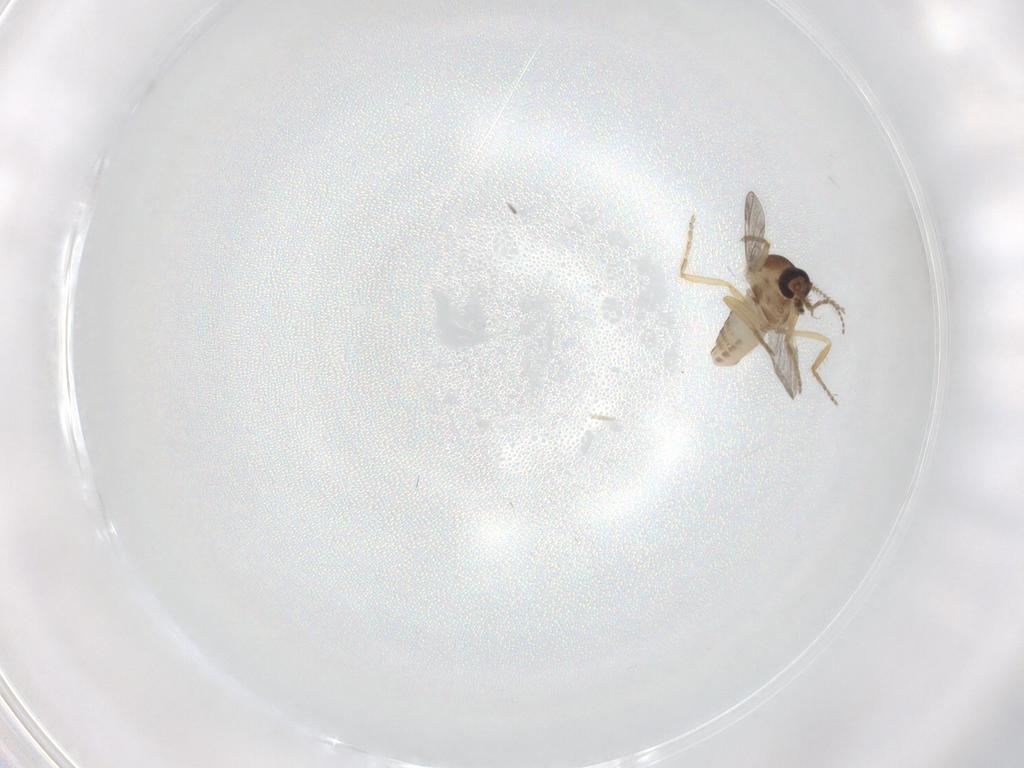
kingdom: Animalia
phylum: Arthropoda
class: Insecta
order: Diptera
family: Ceratopogonidae
